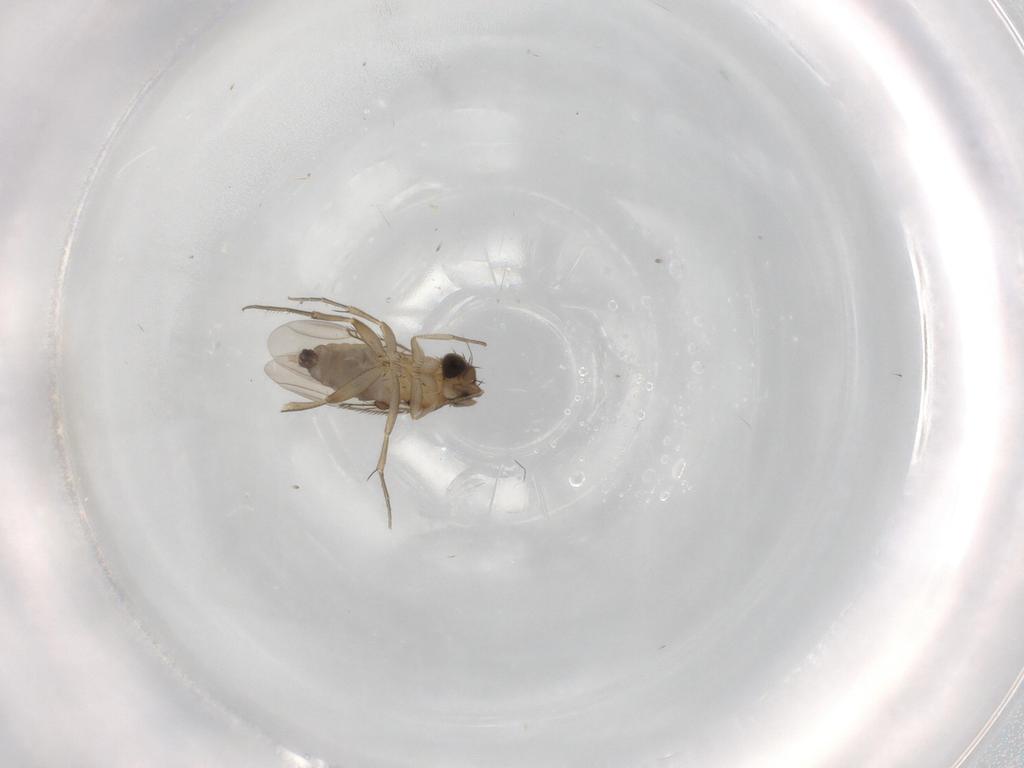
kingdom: Animalia
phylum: Arthropoda
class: Insecta
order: Diptera
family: Phoridae
